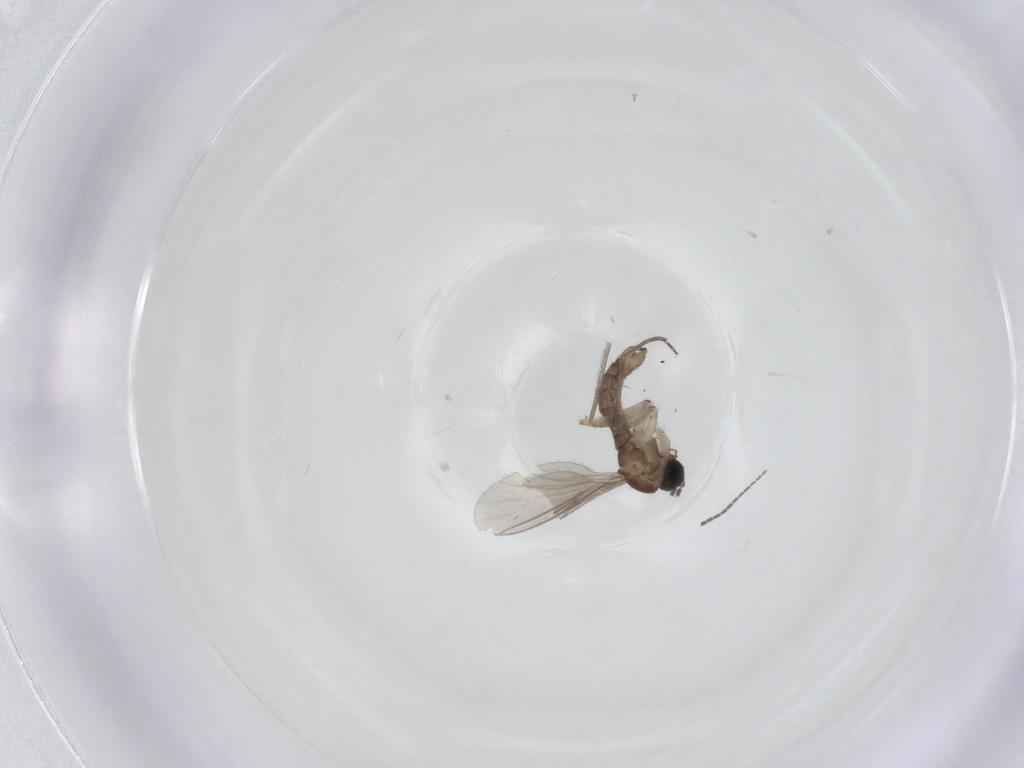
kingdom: Animalia
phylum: Arthropoda
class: Insecta
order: Diptera
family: Sciaridae
